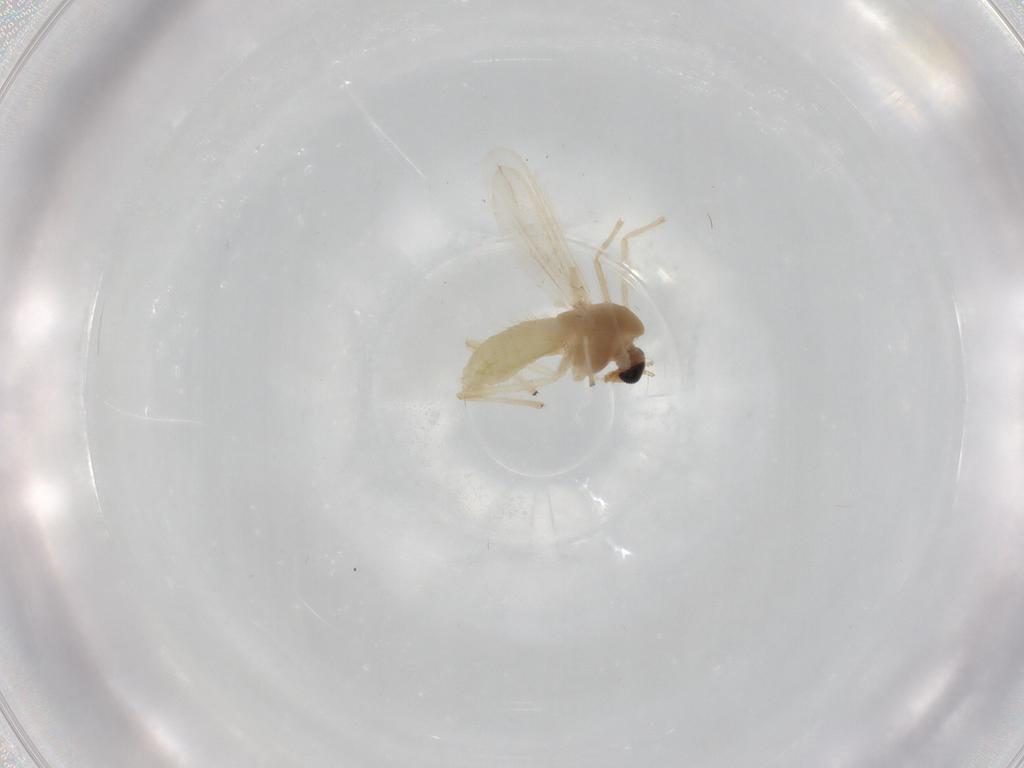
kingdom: Animalia
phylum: Arthropoda
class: Insecta
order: Diptera
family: Chironomidae
